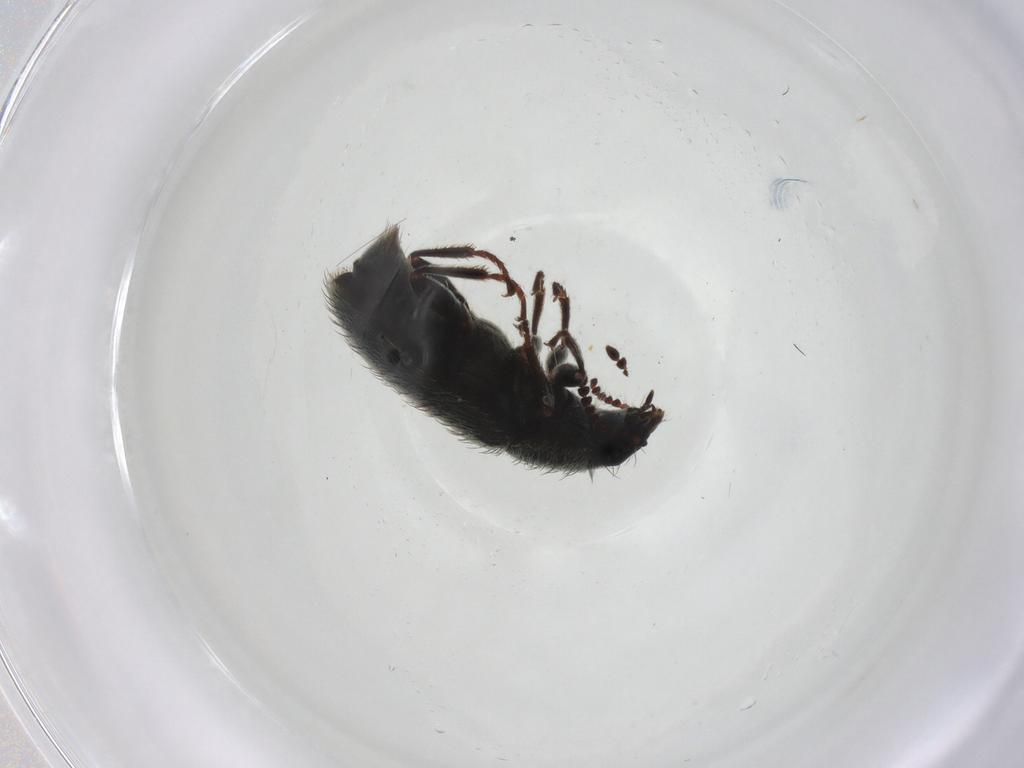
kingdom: Animalia
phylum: Arthropoda
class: Insecta
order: Coleoptera
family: Melyridae
